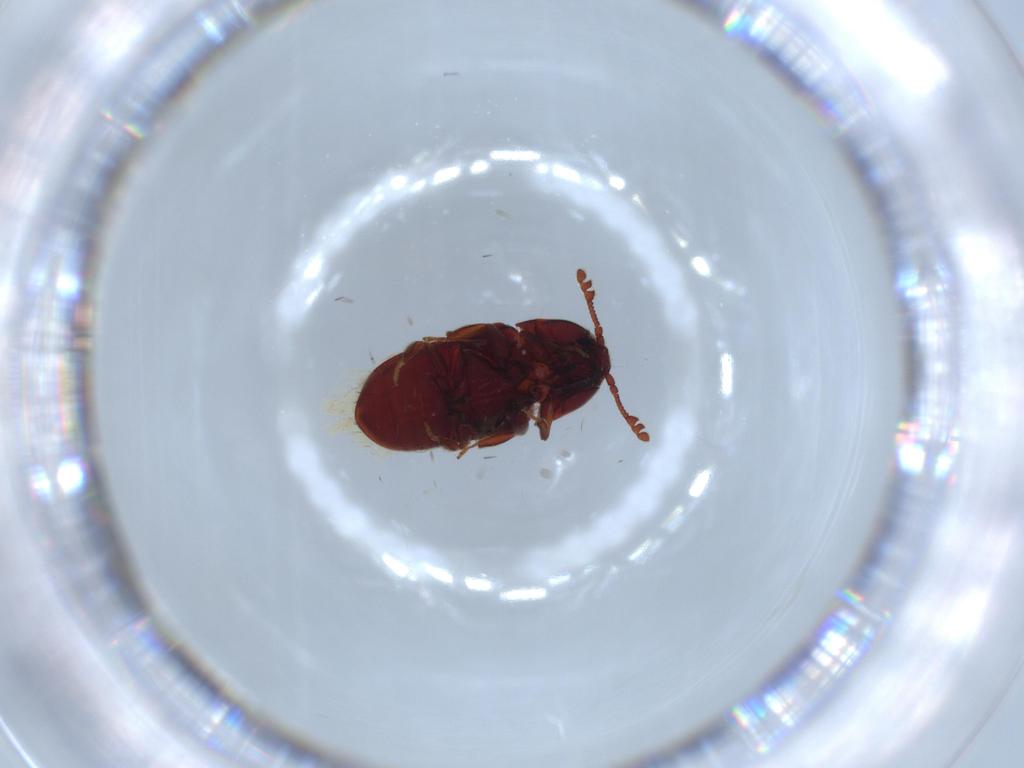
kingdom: Animalia
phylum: Arthropoda
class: Insecta
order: Coleoptera
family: Throscidae
